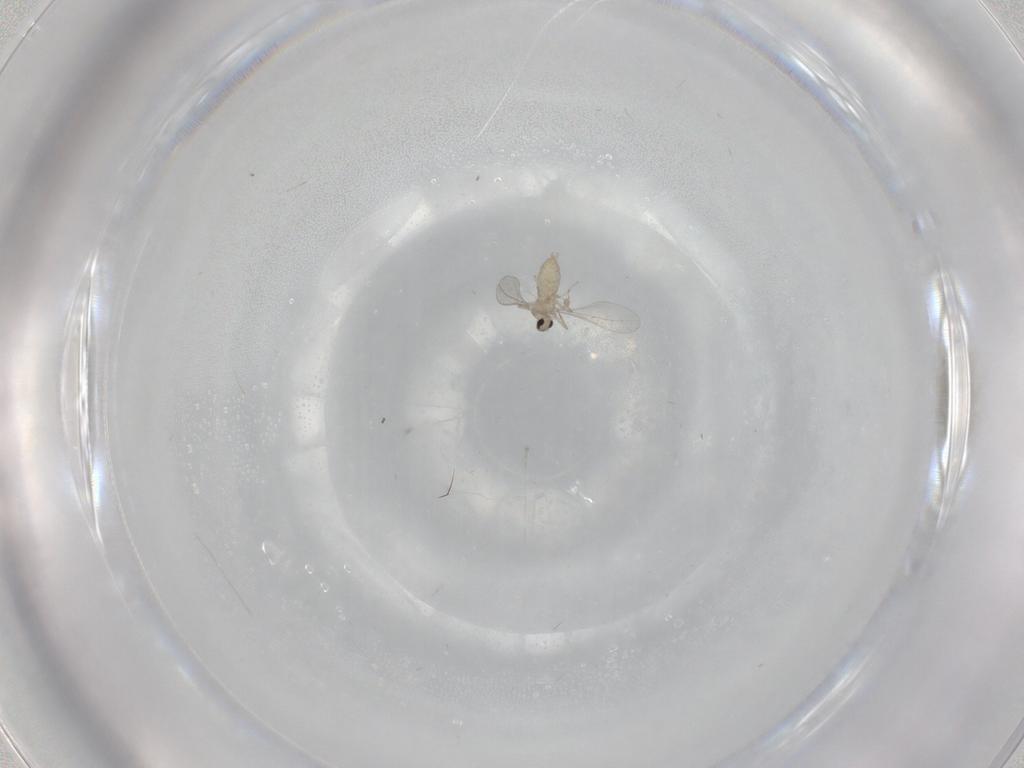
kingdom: Animalia
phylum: Arthropoda
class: Insecta
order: Diptera
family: Cecidomyiidae
